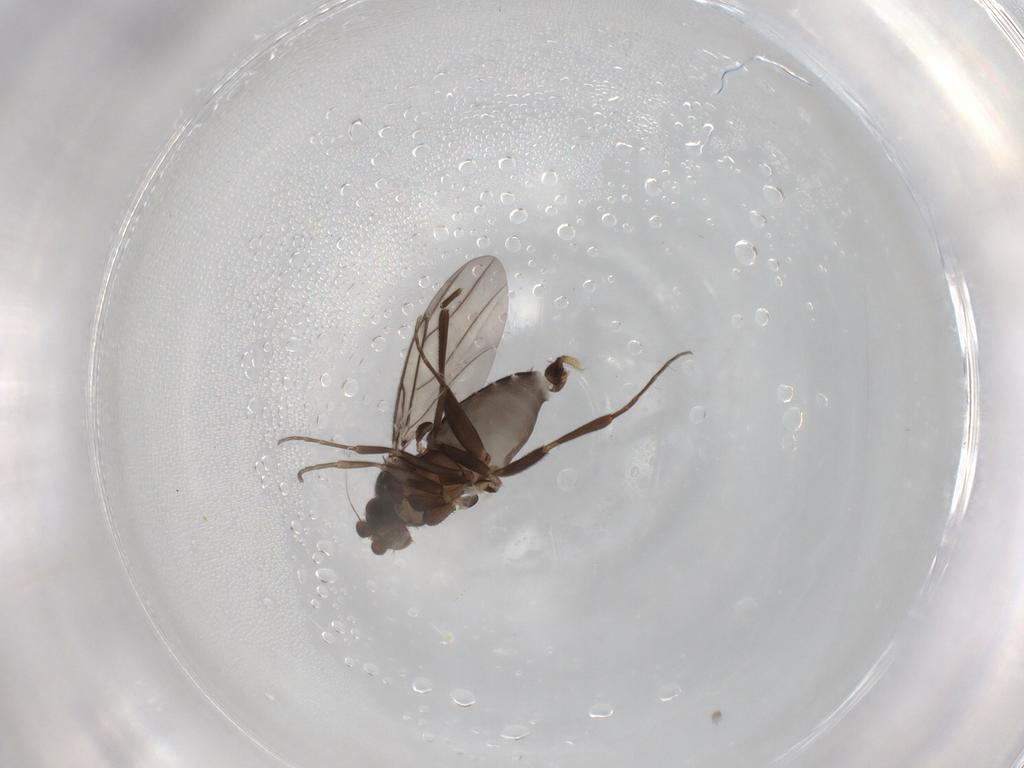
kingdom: Animalia
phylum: Arthropoda
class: Insecta
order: Diptera
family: Phoridae
